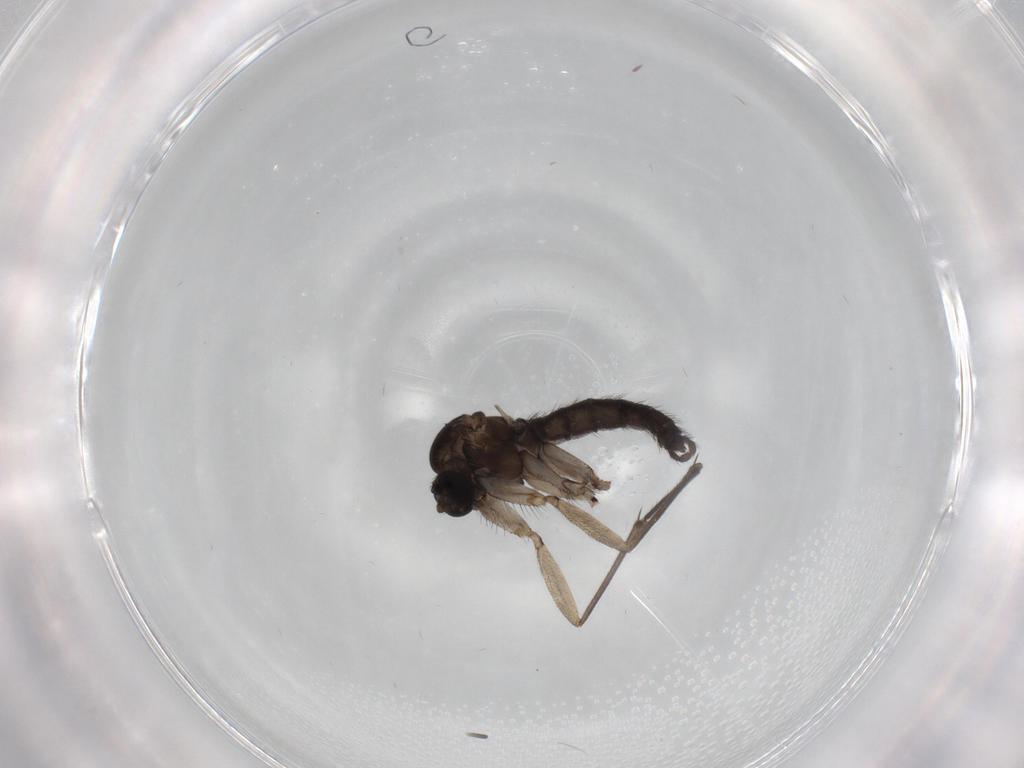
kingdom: Animalia
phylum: Arthropoda
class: Insecta
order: Diptera
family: Sciaridae
